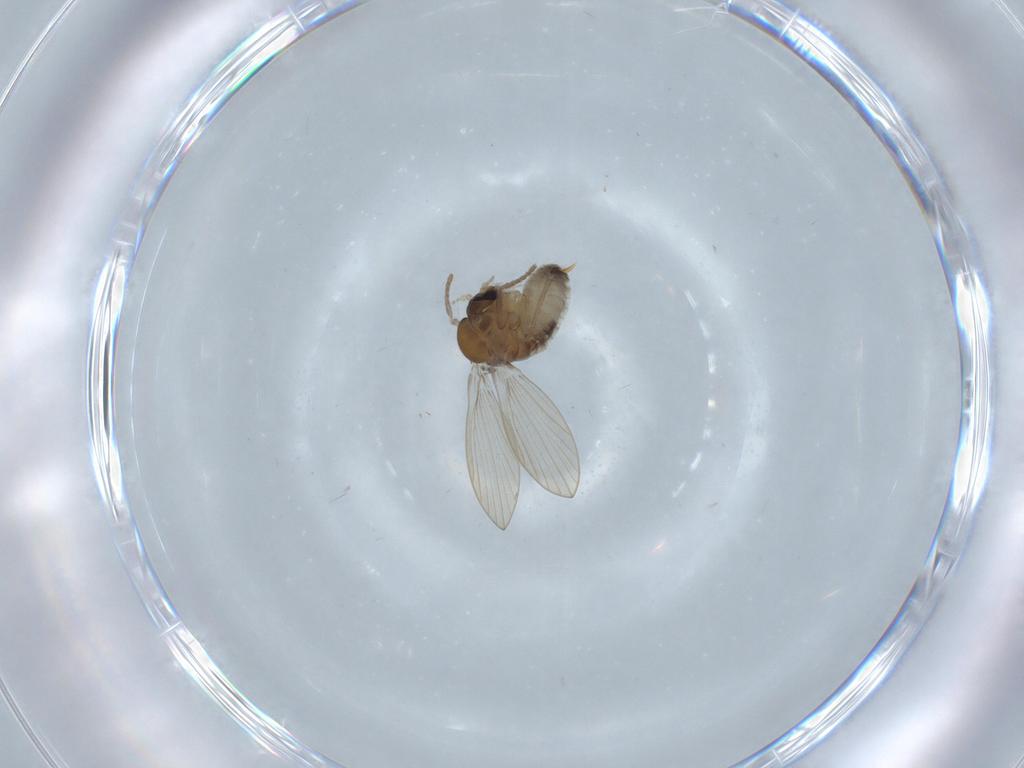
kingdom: Animalia
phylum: Arthropoda
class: Insecta
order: Diptera
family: Psychodidae
